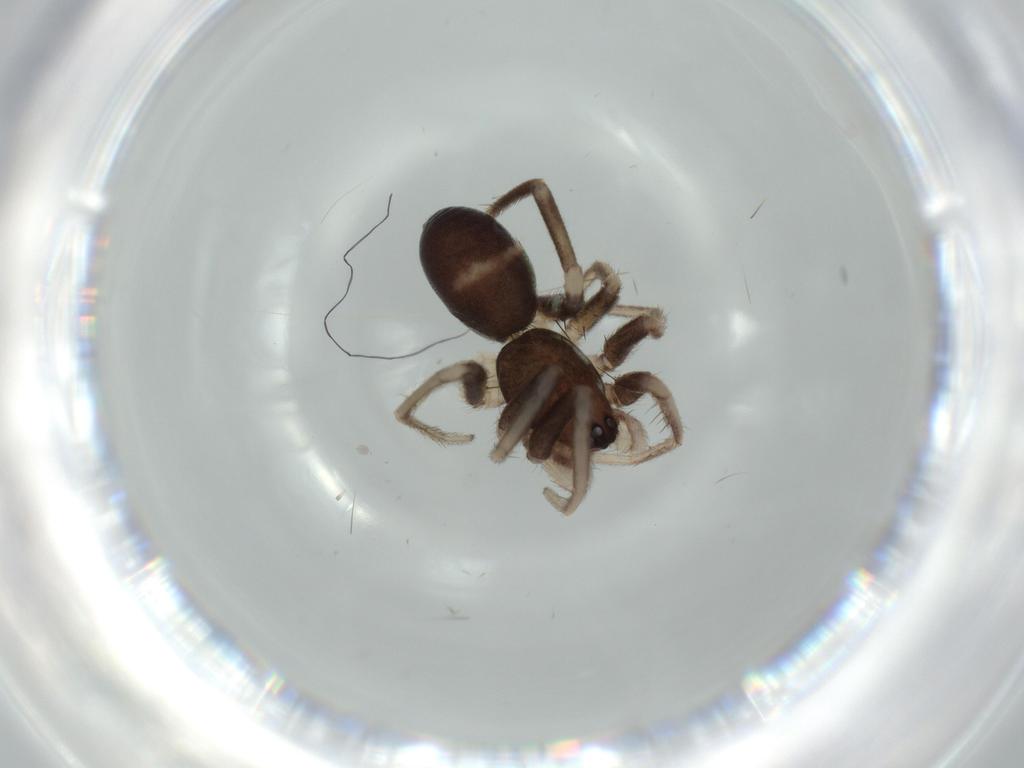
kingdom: Animalia
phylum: Arthropoda
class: Arachnida
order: Araneae
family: Corinnidae
